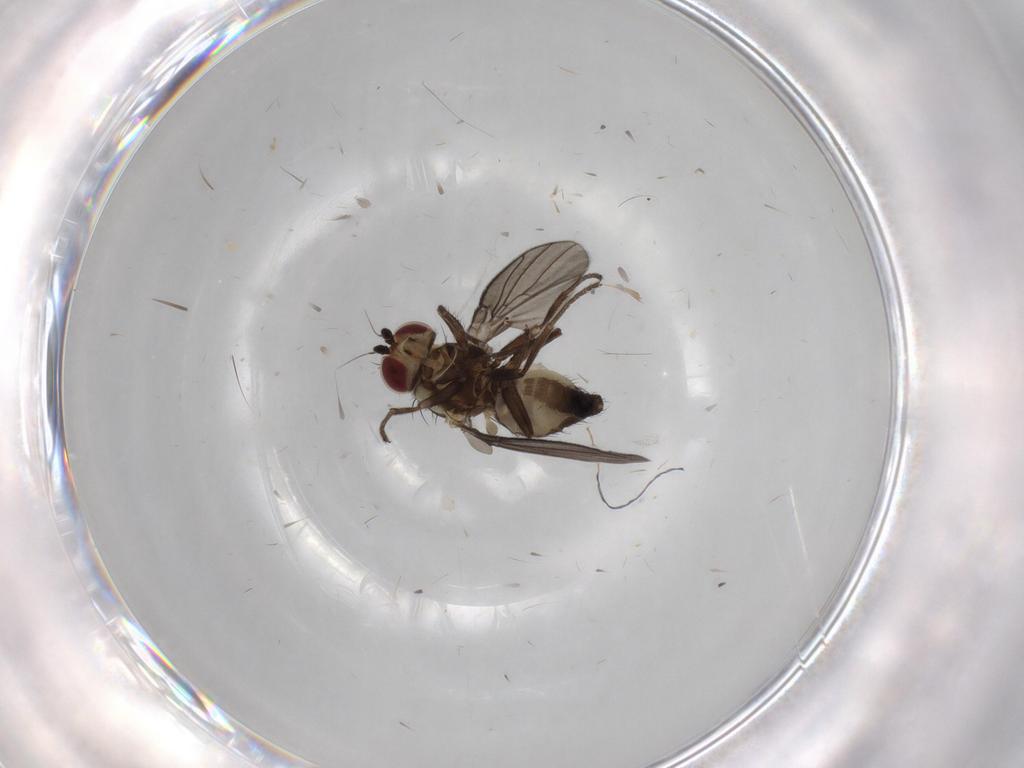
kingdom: Animalia
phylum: Arthropoda
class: Insecta
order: Diptera
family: Agromyzidae
